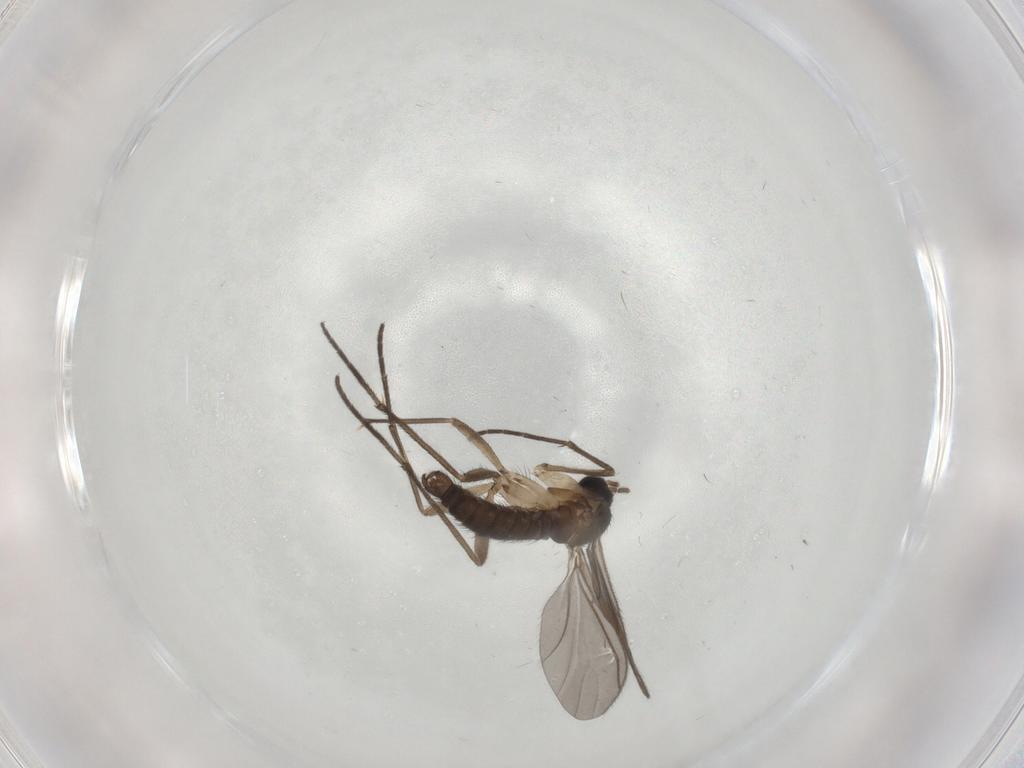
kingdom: Animalia
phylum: Arthropoda
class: Insecta
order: Diptera
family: Sciaridae
